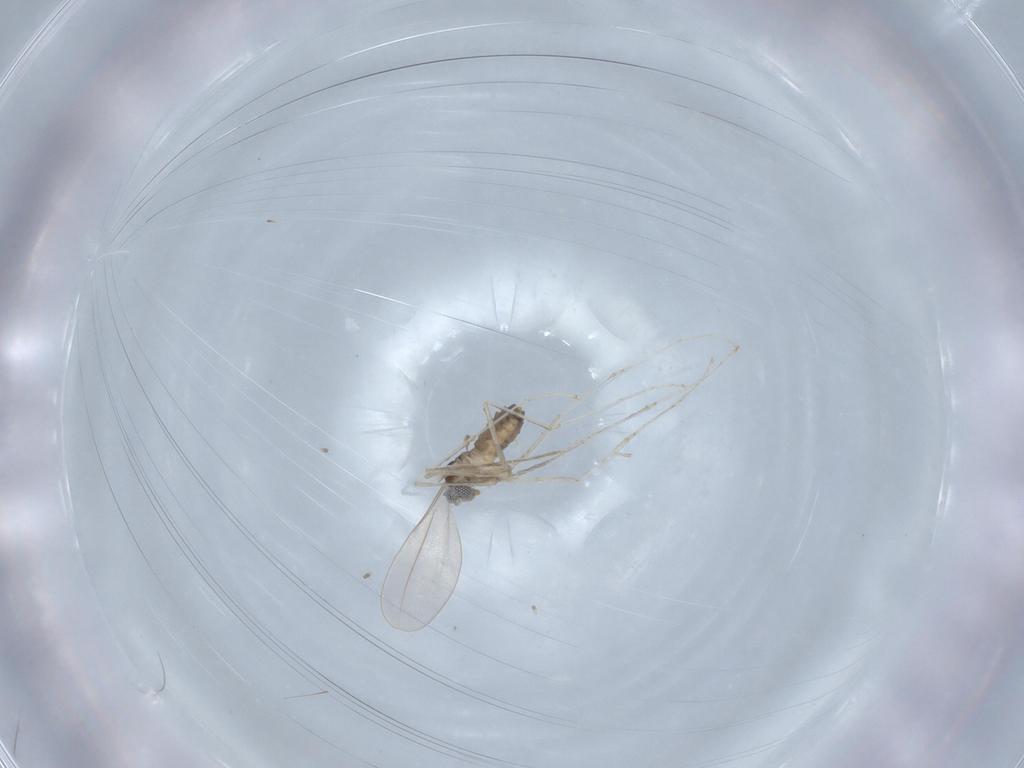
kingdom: Animalia
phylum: Arthropoda
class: Insecta
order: Diptera
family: Cecidomyiidae
